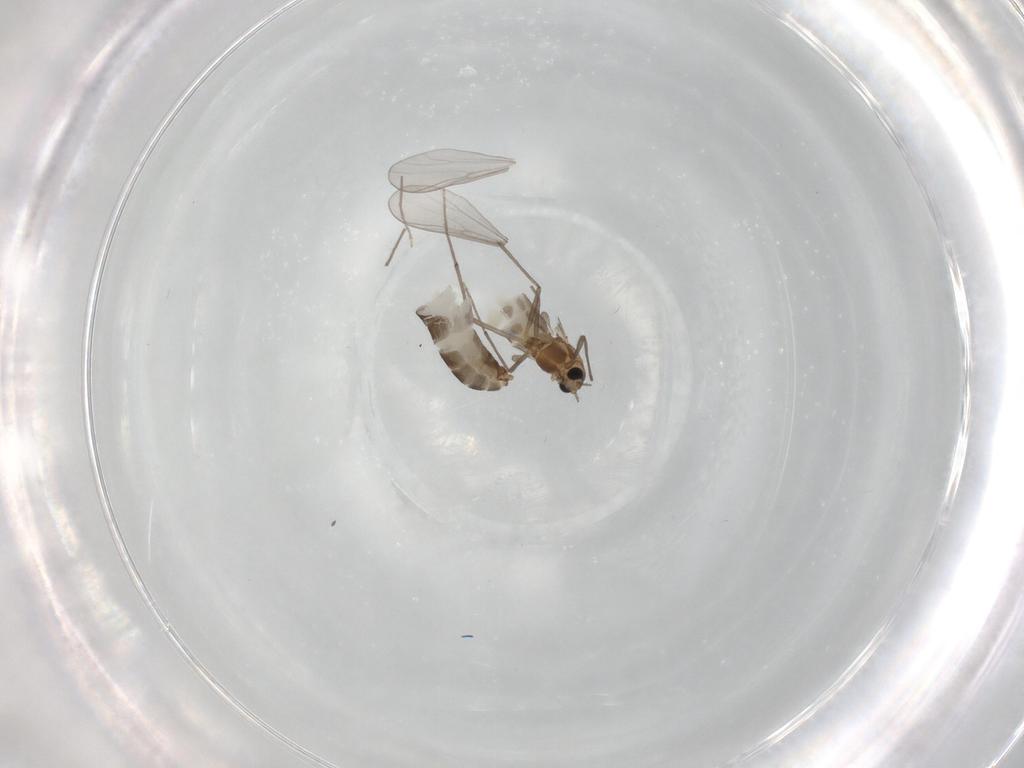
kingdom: Animalia
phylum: Arthropoda
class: Insecta
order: Diptera
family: Chironomidae
